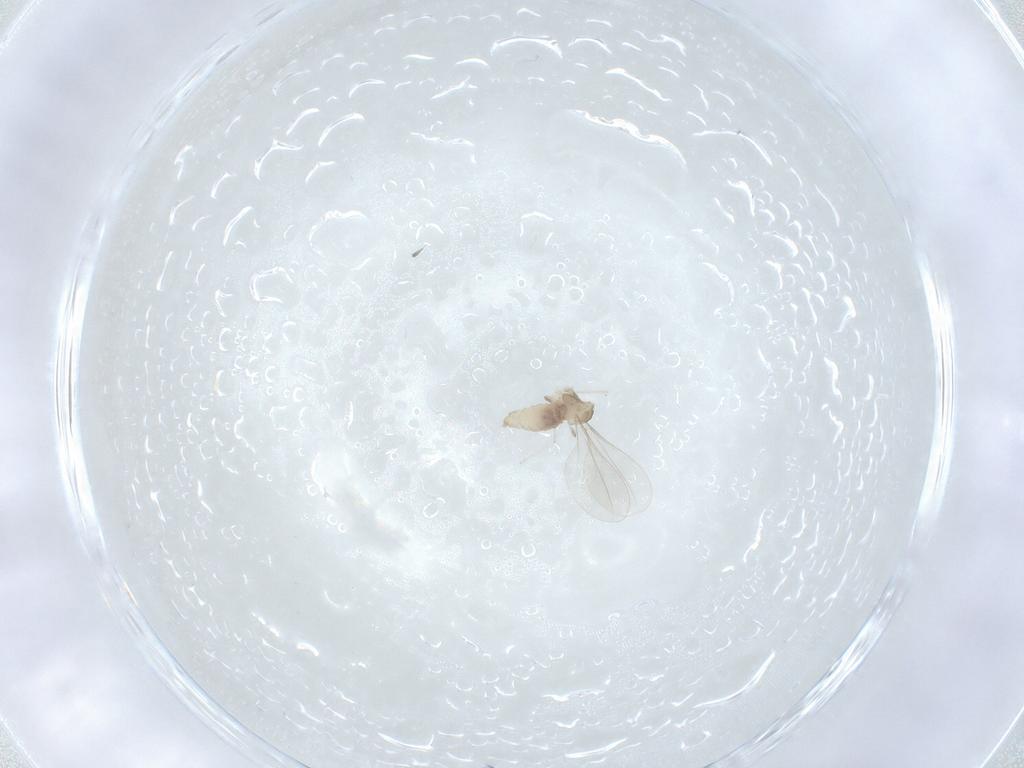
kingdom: Animalia
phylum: Arthropoda
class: Insecta
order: Diptera
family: Cecidomyiidae
